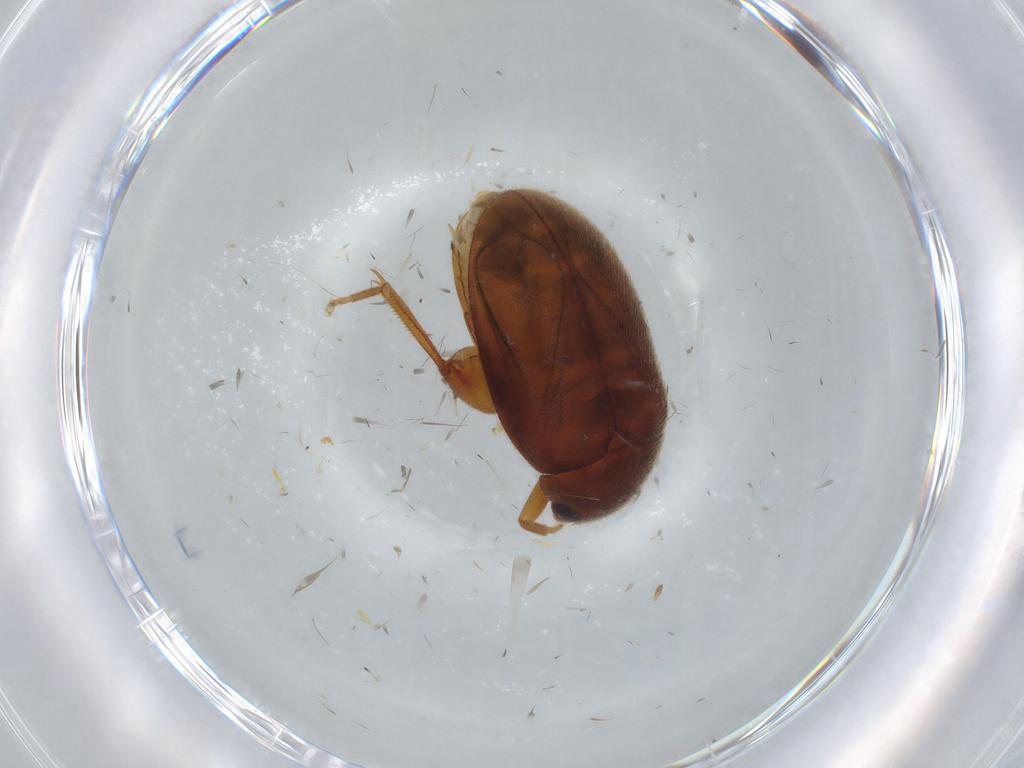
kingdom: Animalia
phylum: Arthropoda
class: Insecta
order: Coleoptera
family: Scirtidae
